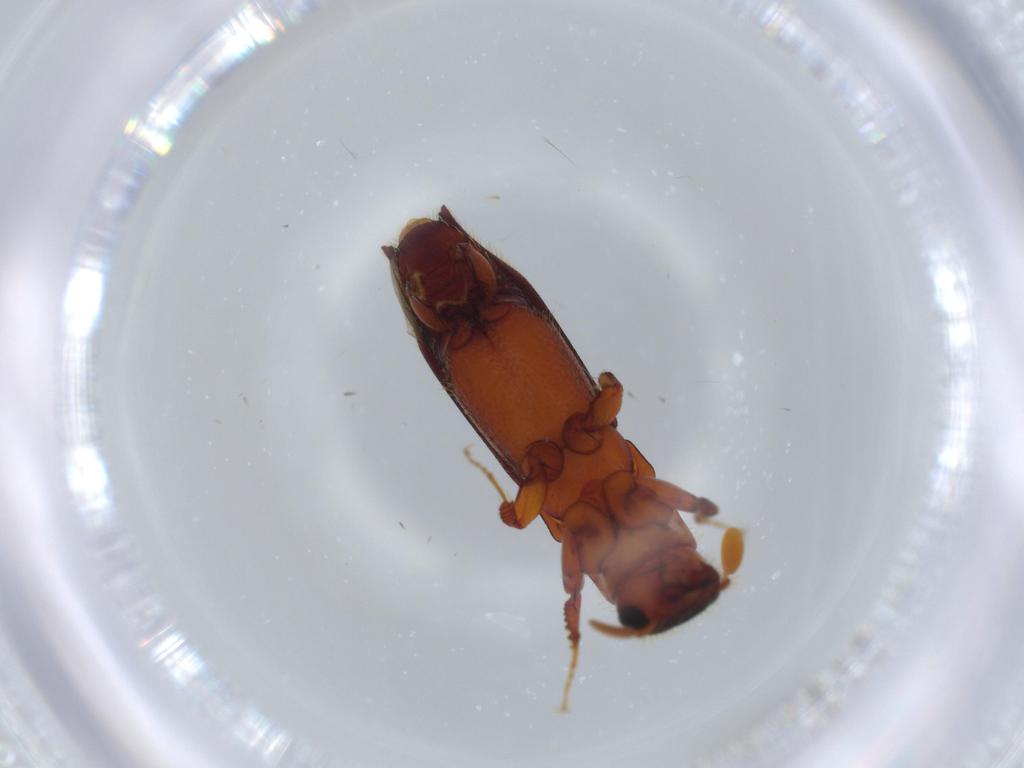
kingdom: Animalia
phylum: Arthropoda
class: Insecta
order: Coleoptera
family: Curculionidae
